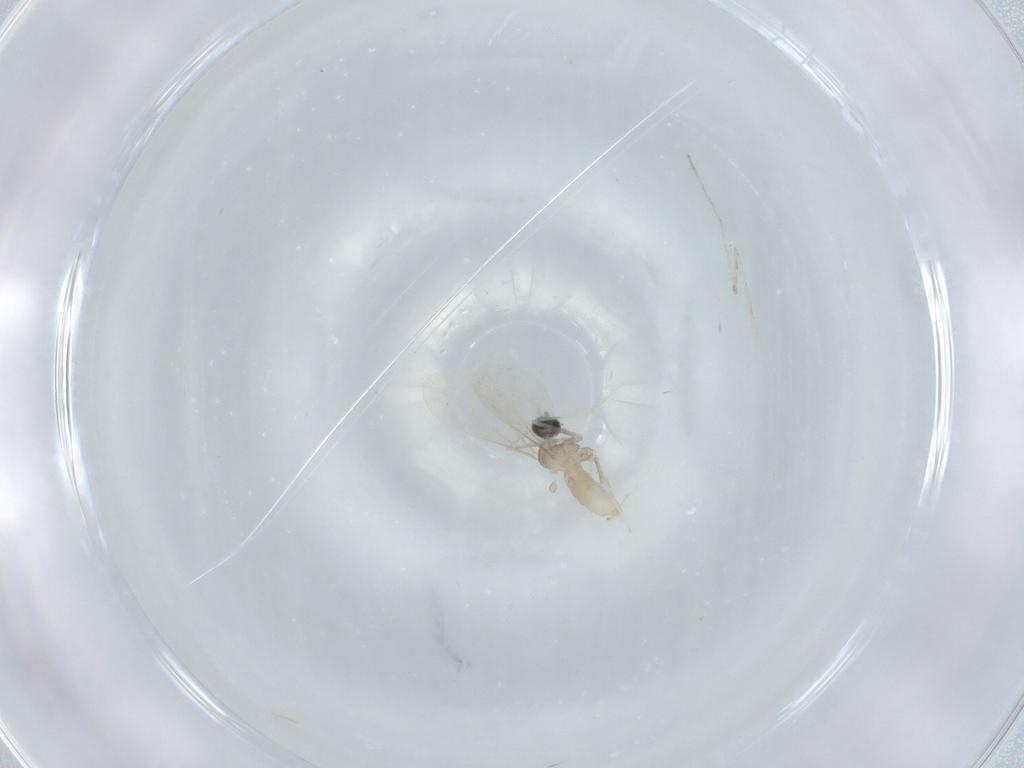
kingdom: Animalia
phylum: Arthropoda
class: Insecta
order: Diptera
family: Cecidomyiidae
